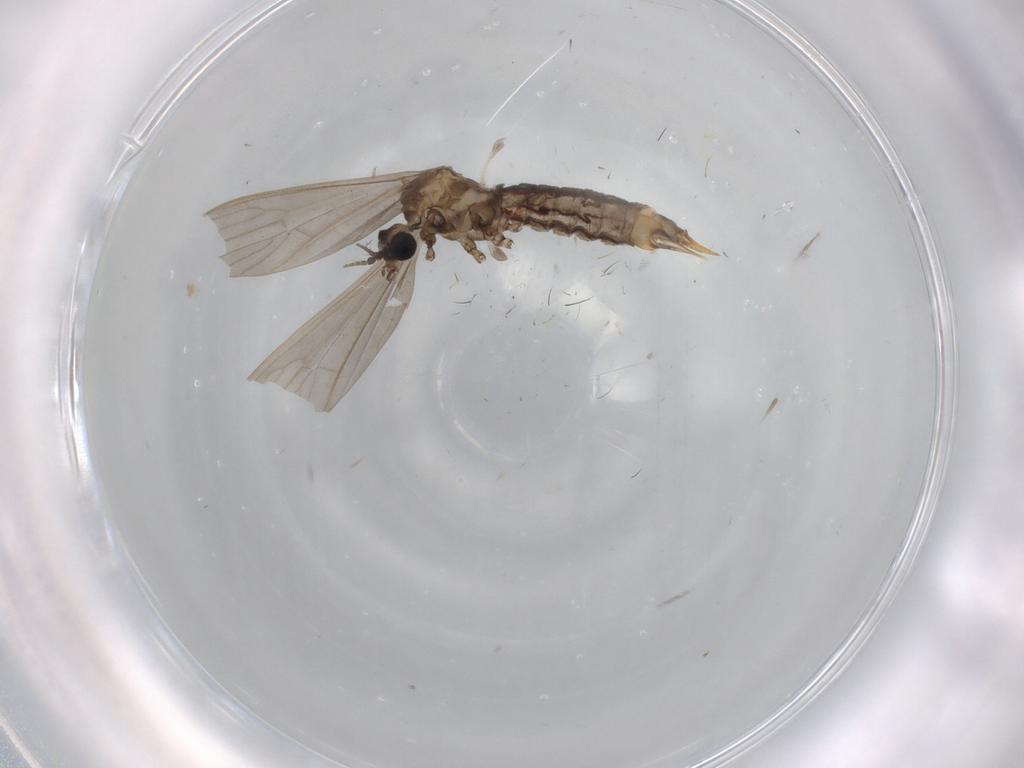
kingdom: Animalia
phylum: Arthropoda
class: Insecta
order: Diptera
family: Limoniidae
